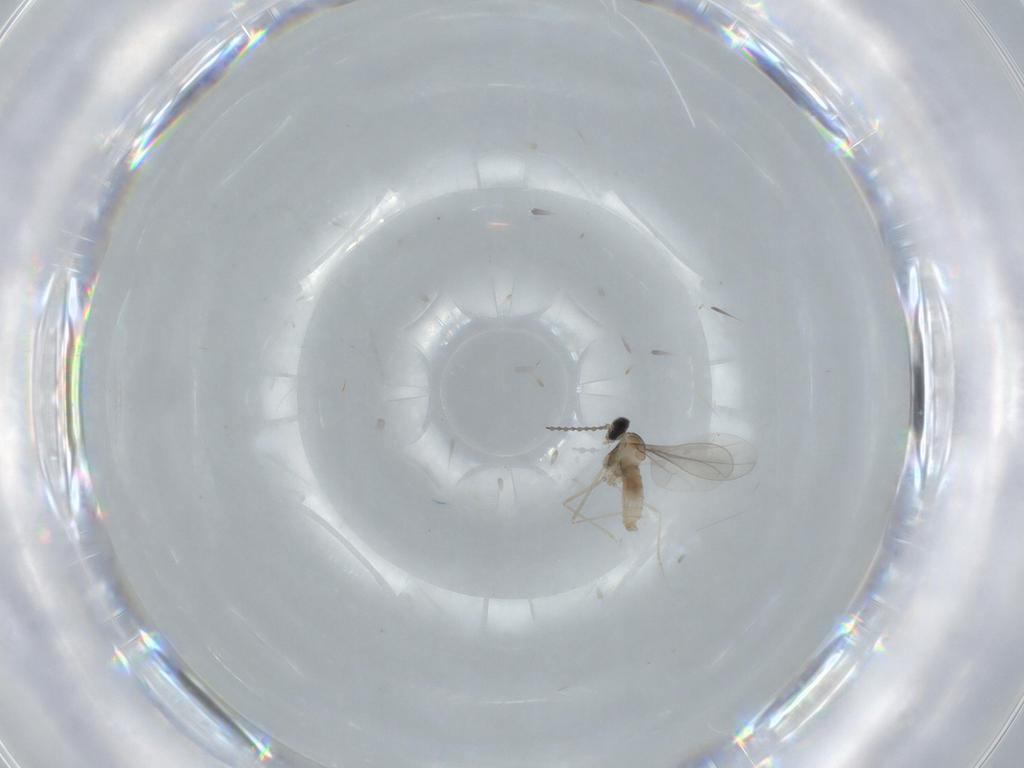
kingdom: Animalia
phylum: Arthropoda
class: Insecta
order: Diptera
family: Cecidomyiidae
